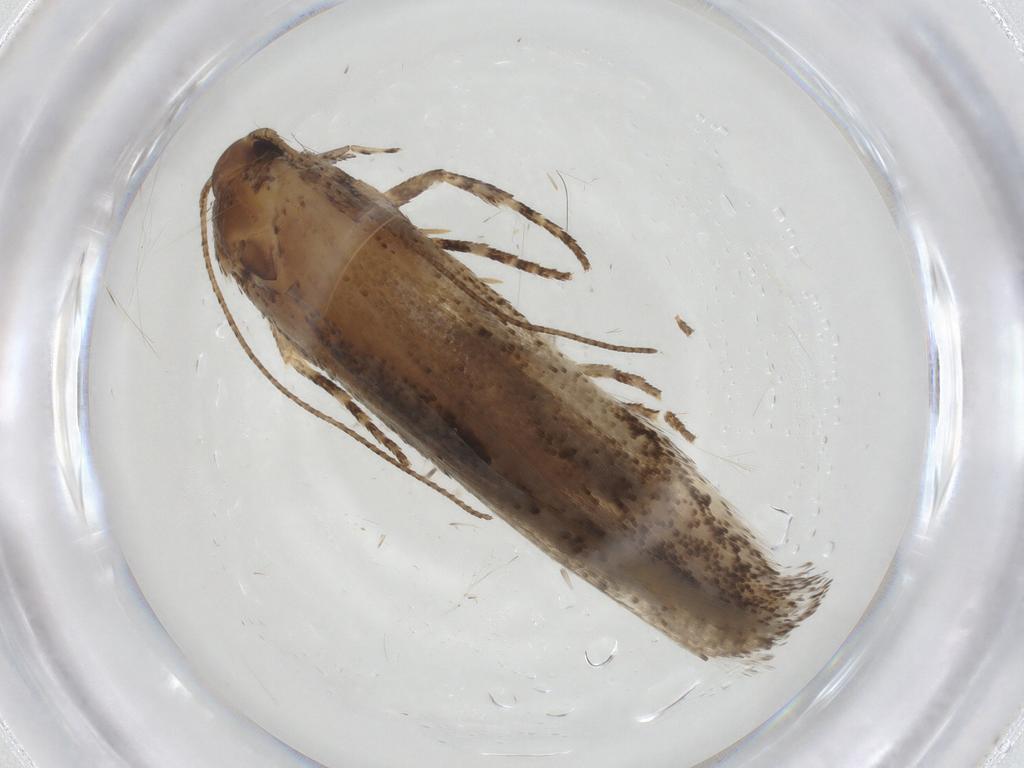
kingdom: Animalia
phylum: Arthropoda
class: Insecta
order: Lepidoptera
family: Gelechiidae
